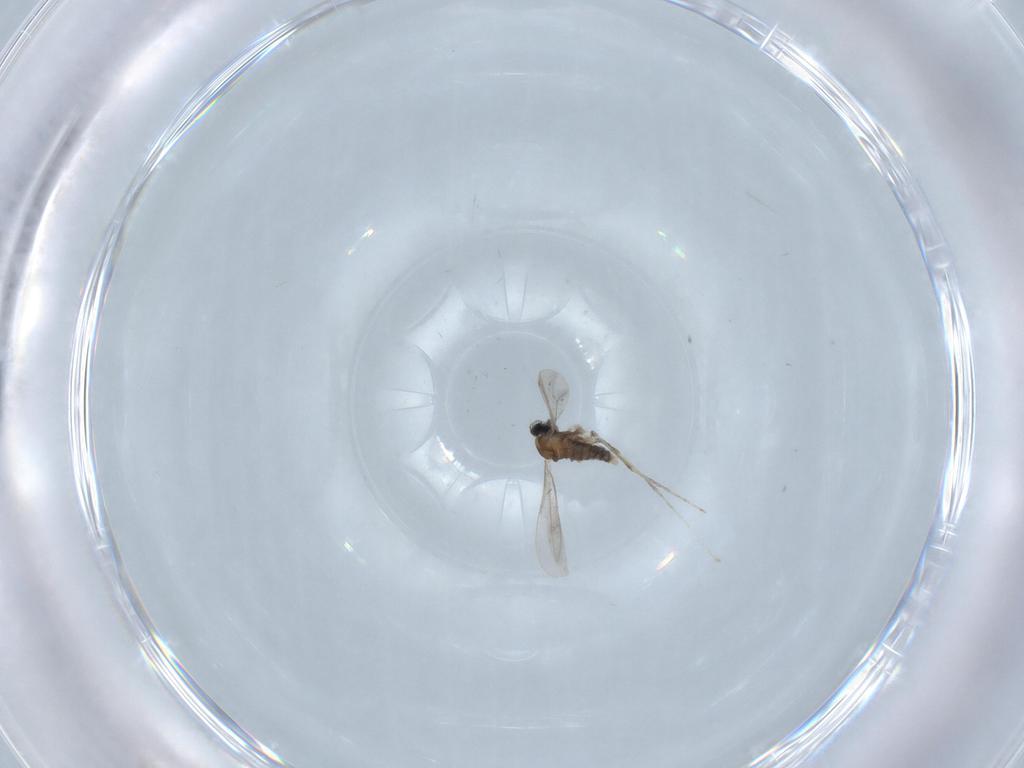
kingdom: Animalia
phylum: Arthropoda
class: Insecta
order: Diptera
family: Cecidomyiidae
